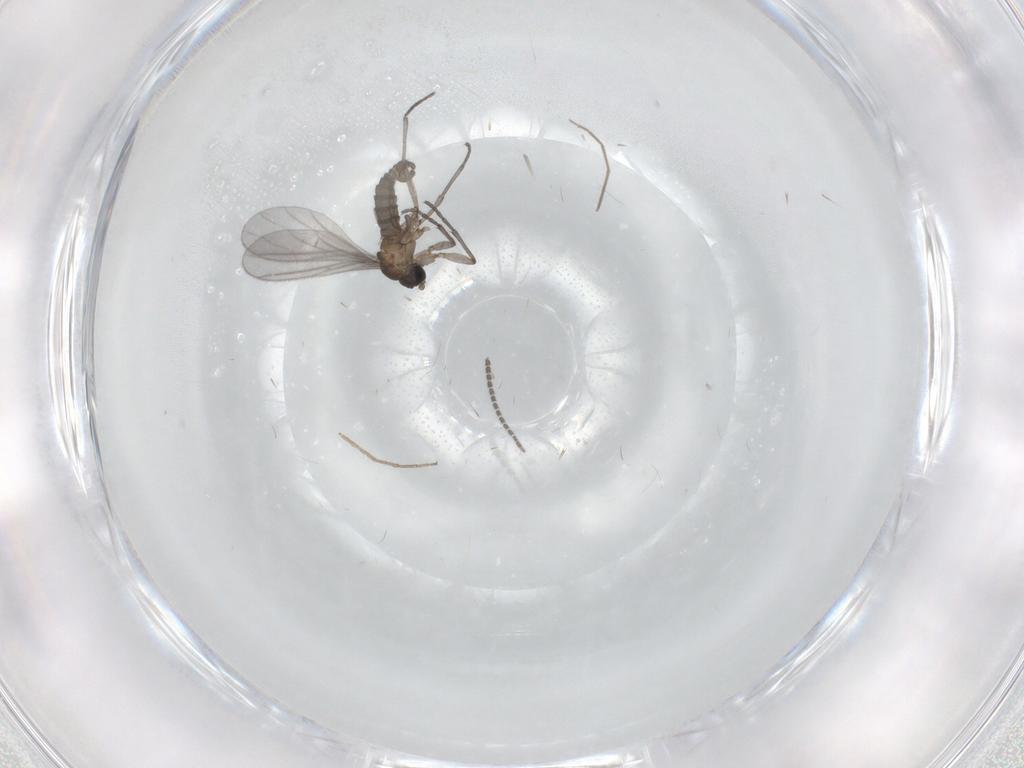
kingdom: Animalia
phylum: Arthropoda
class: Insecta
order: Diptera
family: Sciaridae
